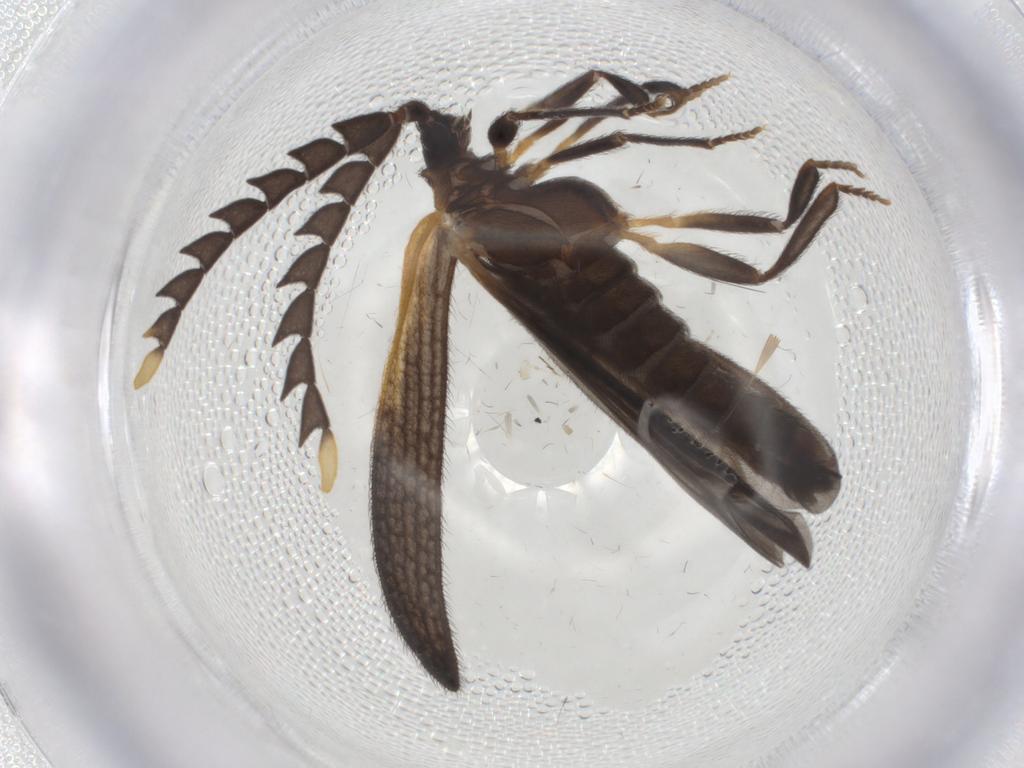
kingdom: Animalia
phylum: Arthropoda
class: Insecta
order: Coleoptera
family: Lycidae
